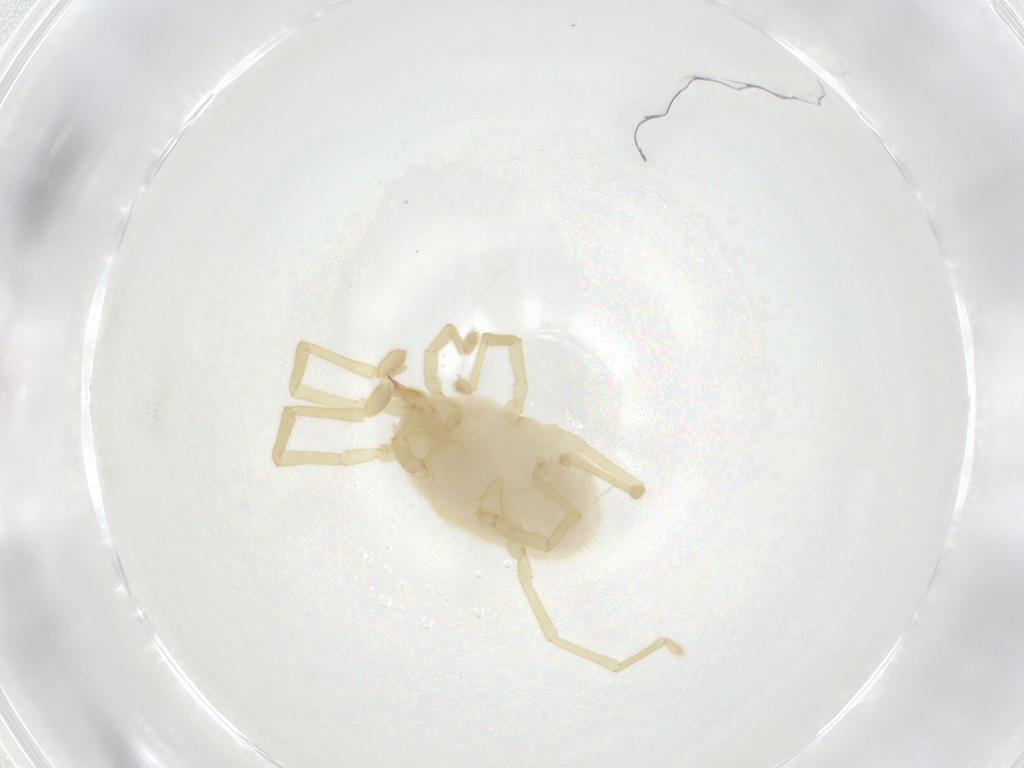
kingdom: Animalia
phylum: Arthropoda
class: Arachnida
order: Trombidiformes
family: Erythraeidae
